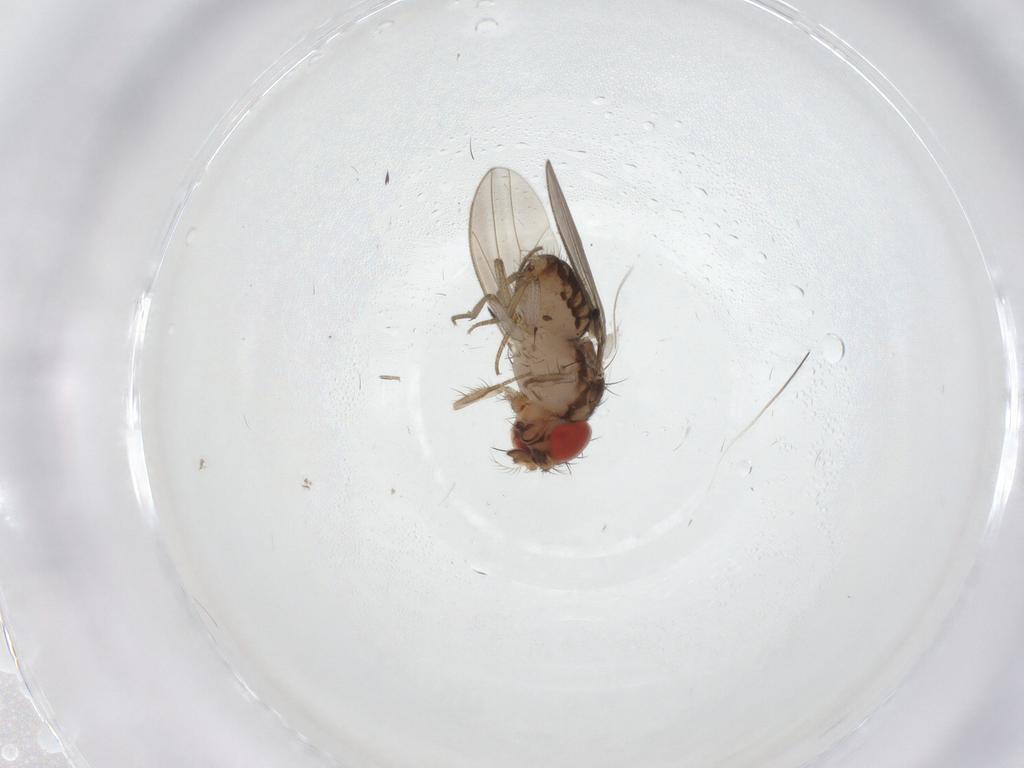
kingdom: Animalia
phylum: Arthropoda
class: Insecta
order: Diptera
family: Drosophilidae
